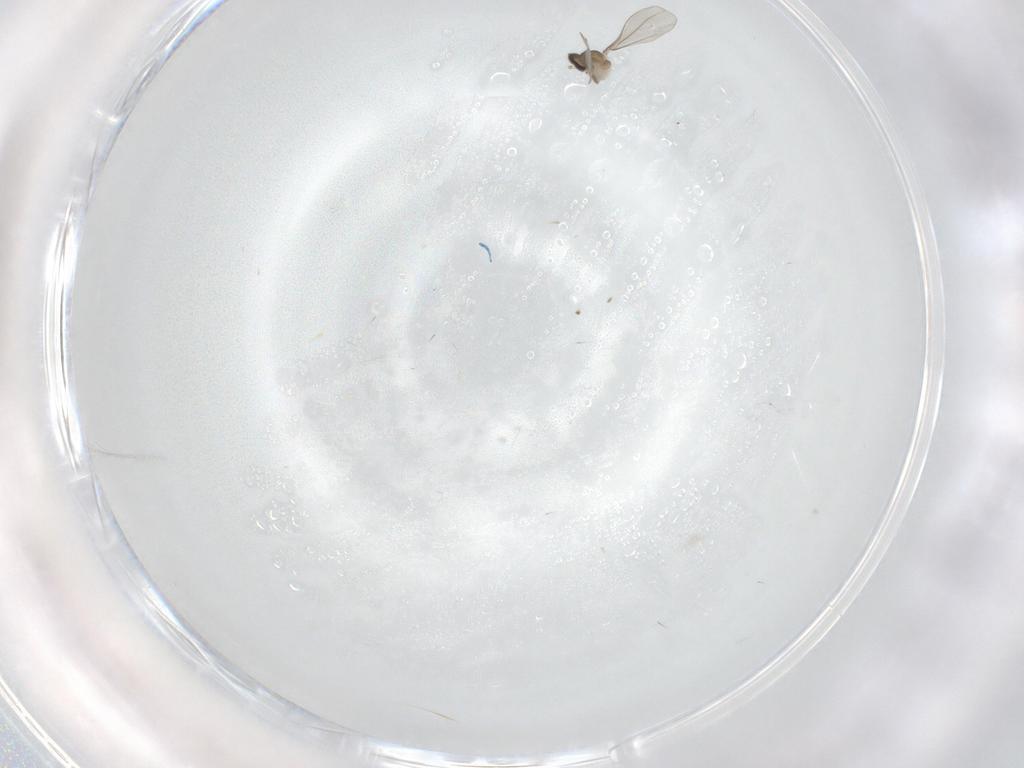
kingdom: Animalia
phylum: Arthropoda
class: Insecta
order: Diptera
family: Cecidomyiidae
